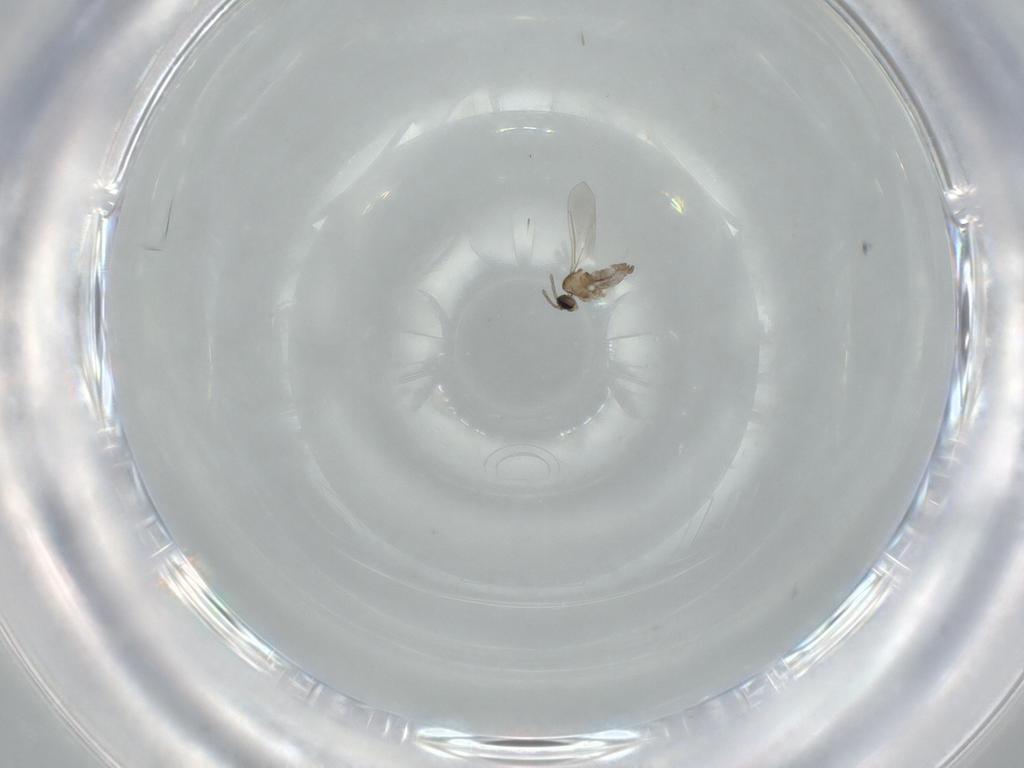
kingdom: Animalia
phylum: Arthropoda
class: Insecta
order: Diptera
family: Cecidomyiidae
